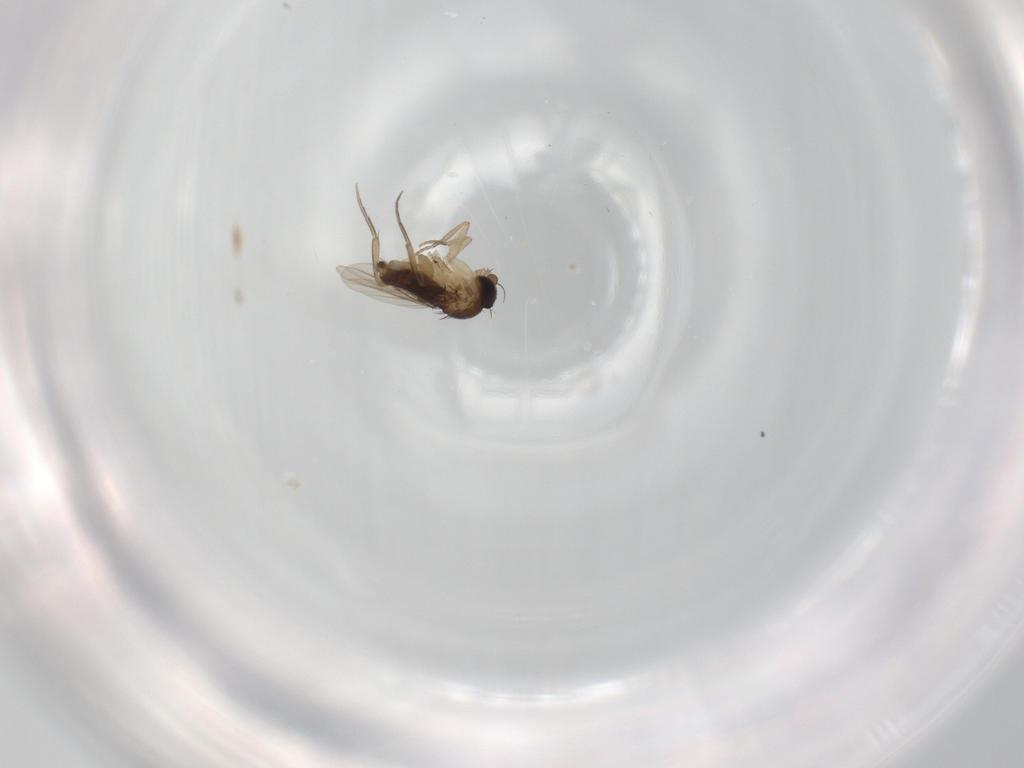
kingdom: Animalia
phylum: Arthropoda
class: Insecta
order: Diptera
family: Phoridae
